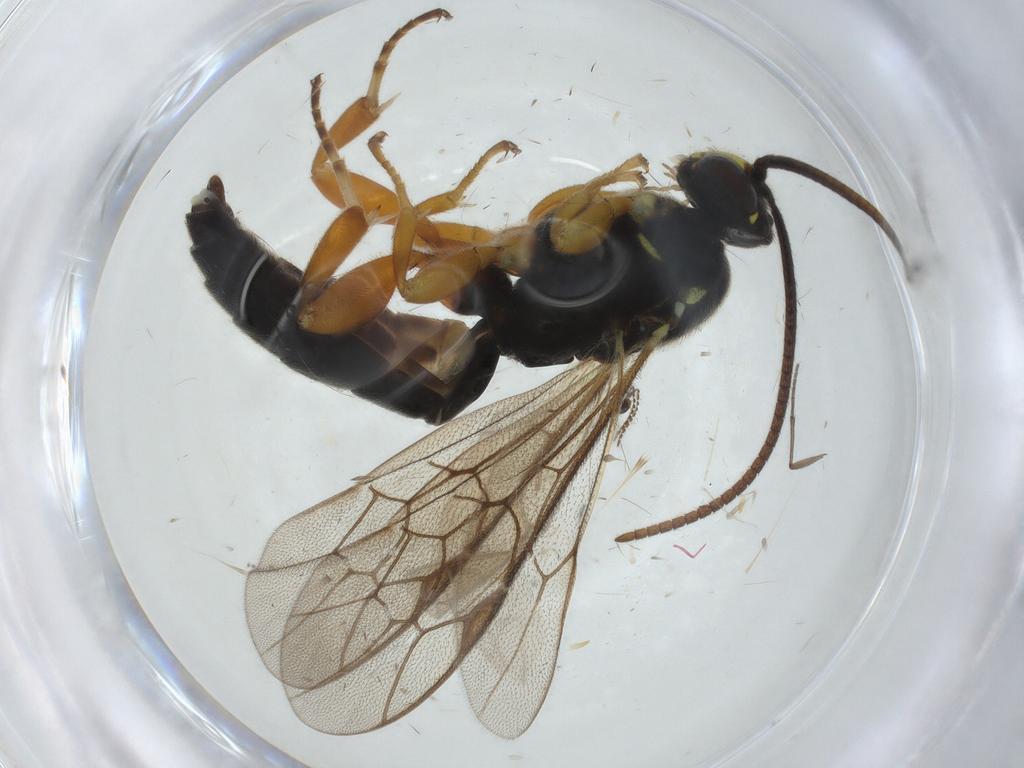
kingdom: Animalia
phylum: Arthropoda
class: Insecta
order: Hymenoptera
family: Ichneumonidae
